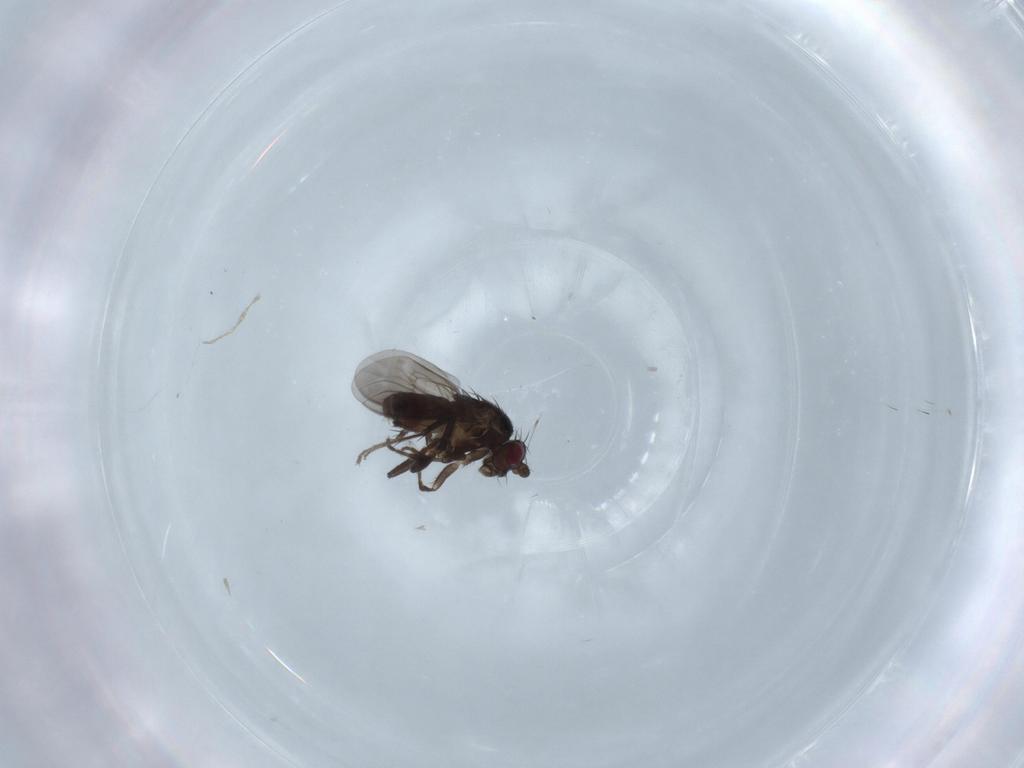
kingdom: Animalia
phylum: Arthropoda
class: Insecta
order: Diptera
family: Sphaeroceridae
